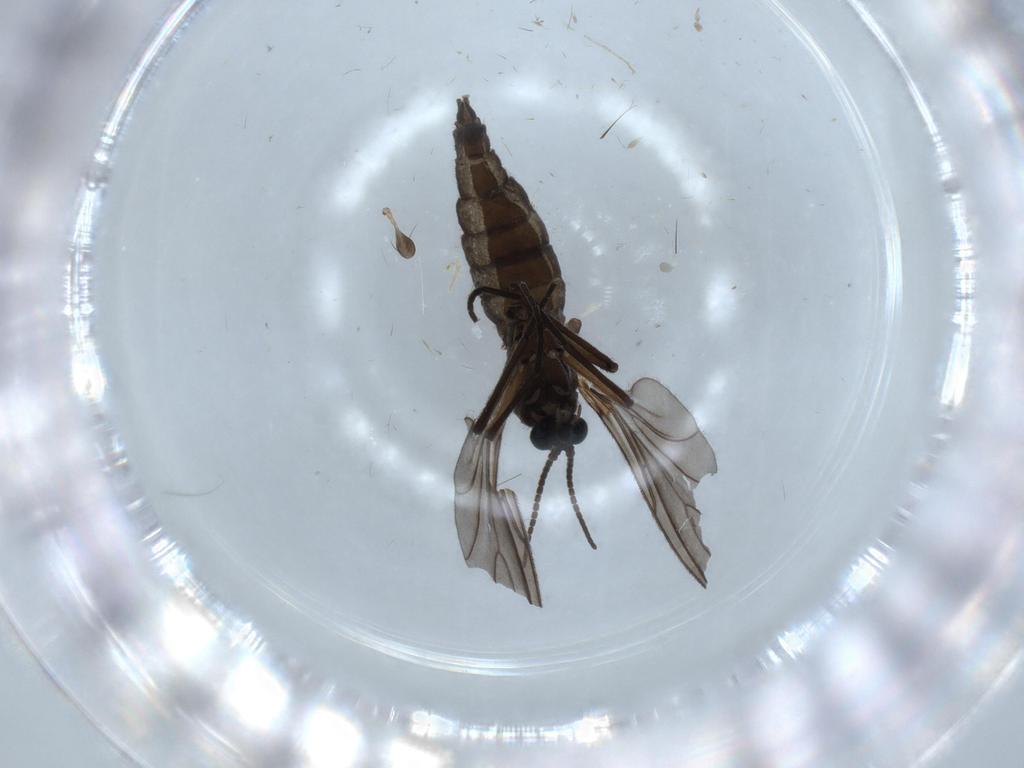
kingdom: Animalia
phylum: Arthropoda
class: Insecta
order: Diptera
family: Sciaridae
